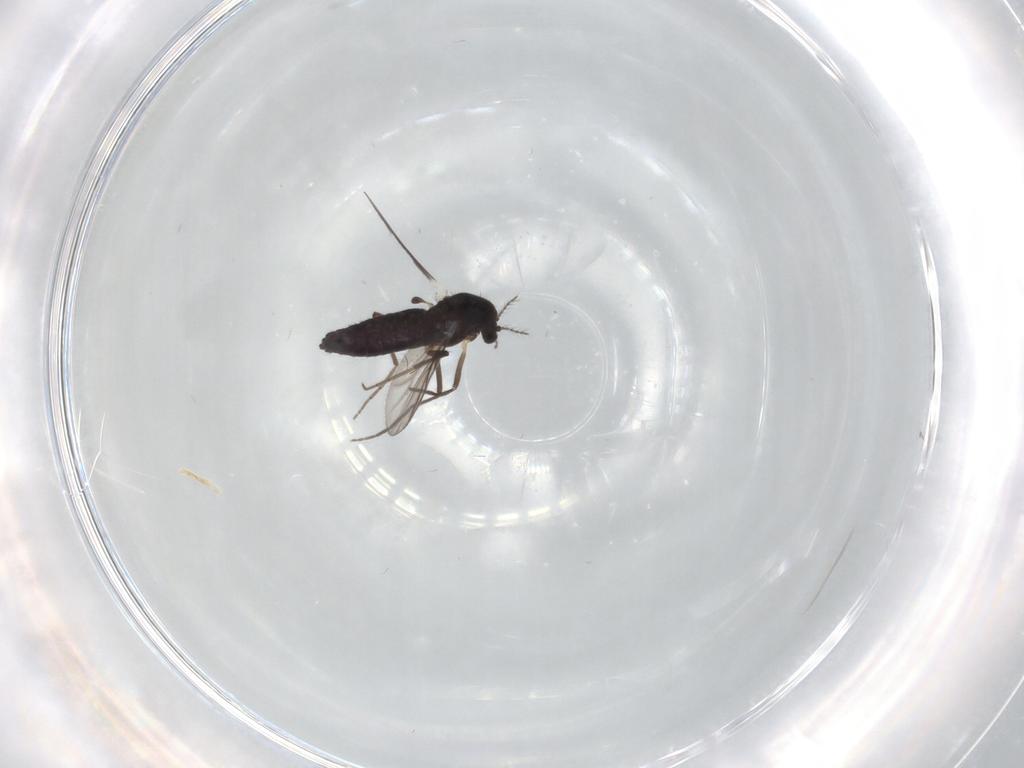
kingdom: Animalia
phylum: Arthropoda
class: Insecta
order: Diptera
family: Chironomidae
